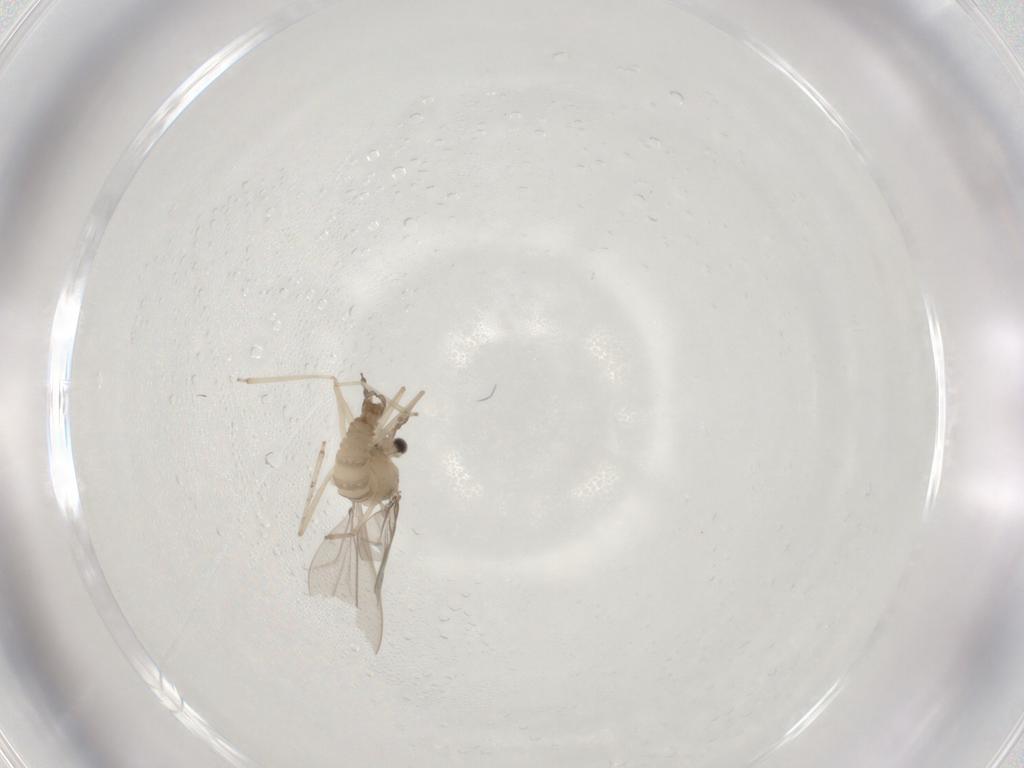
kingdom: Animalia
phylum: Arthropoda
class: Insecta
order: Diptera
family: Cecidomyiidae
